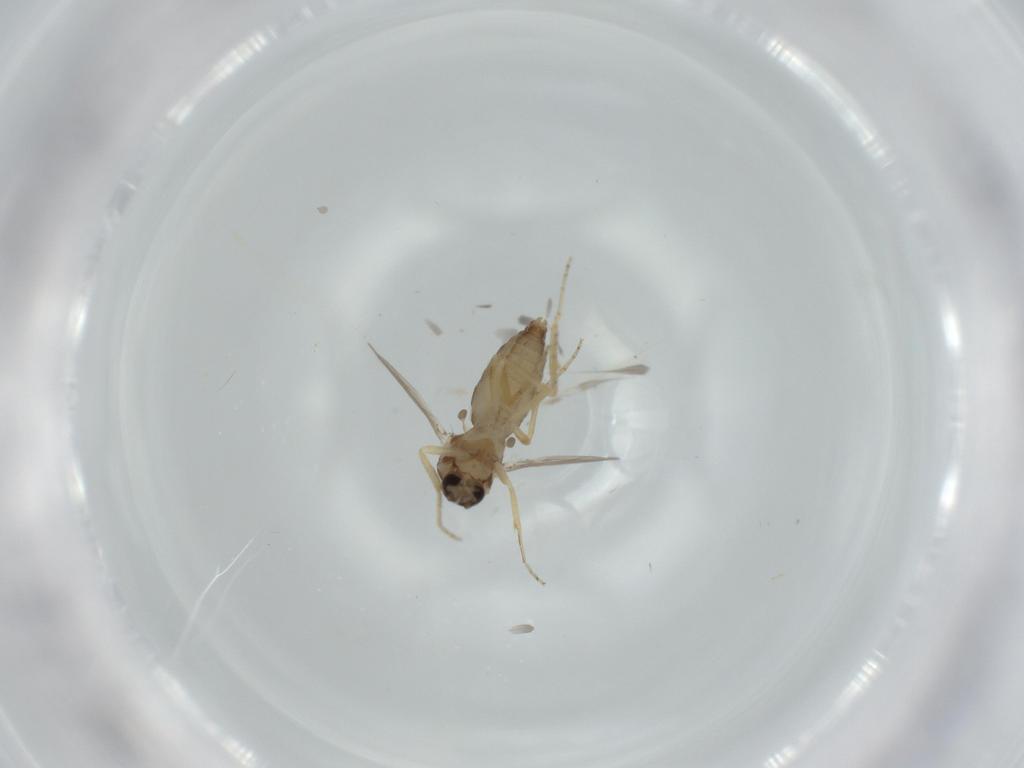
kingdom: Animalia
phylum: Arthropoda
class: Insecta
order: Diptera
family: Ceratopogonidae
